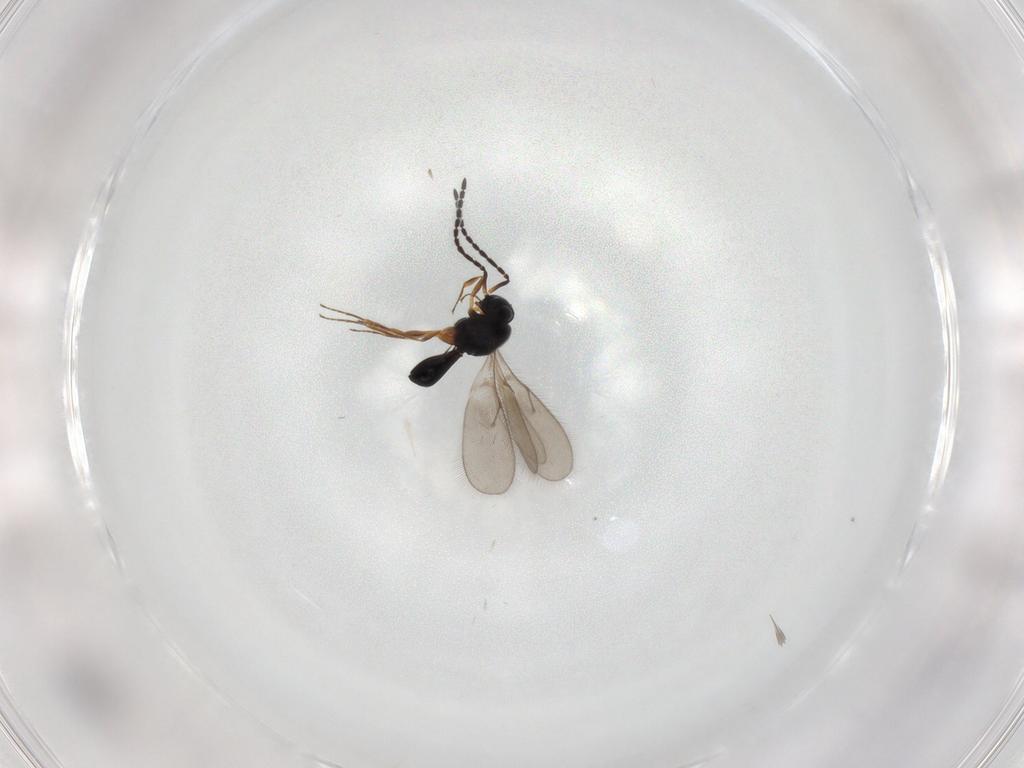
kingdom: Animalia
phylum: Arthropoda
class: Insecta
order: Hymenoptera
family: Scelionidae
